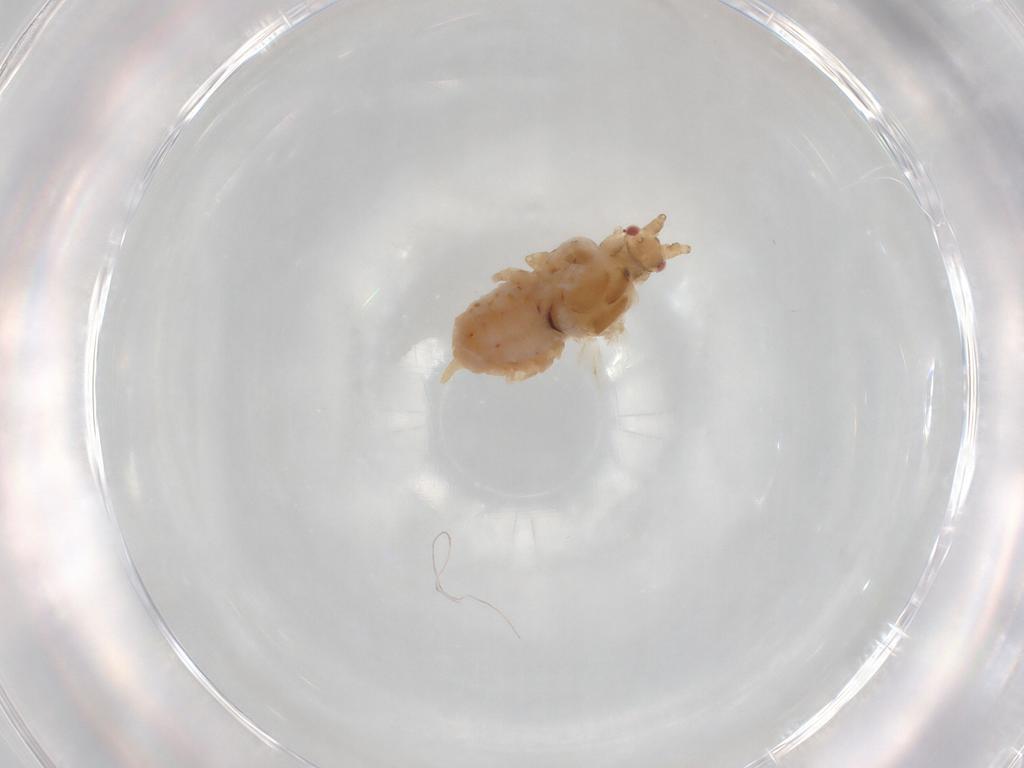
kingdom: Animalia
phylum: Arthropoda
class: Insecta
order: Hemiptera
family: Aphididae
